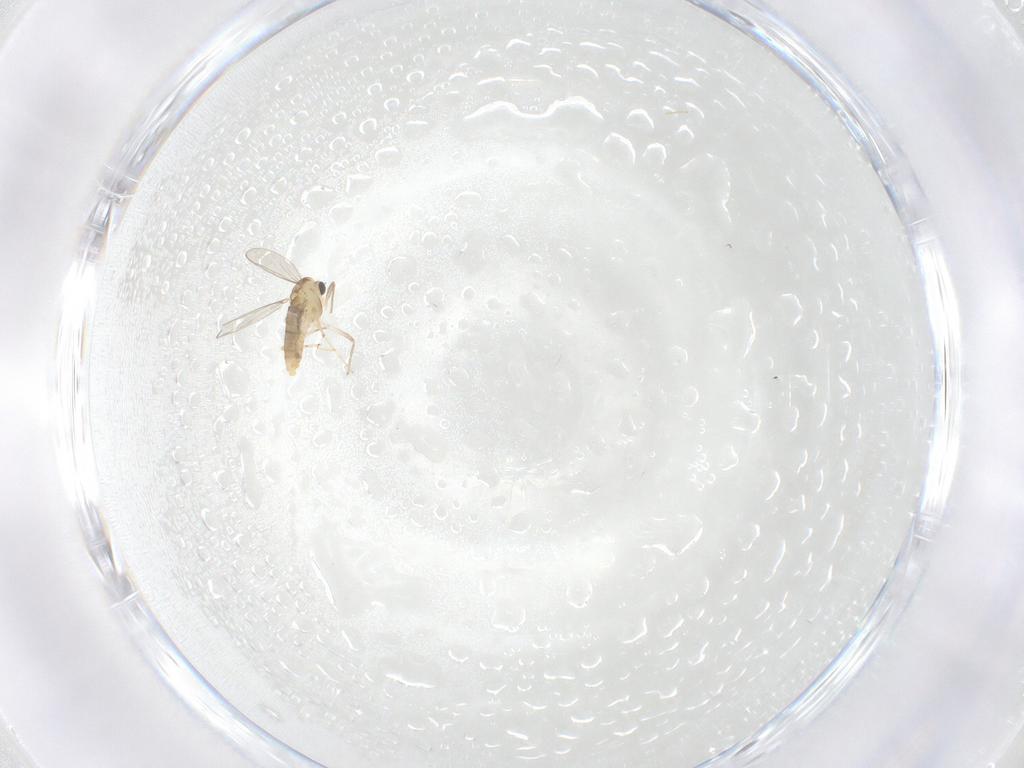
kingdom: Animalia
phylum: Arthropoda
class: Insecta
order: Diptera
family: Chironomidae
